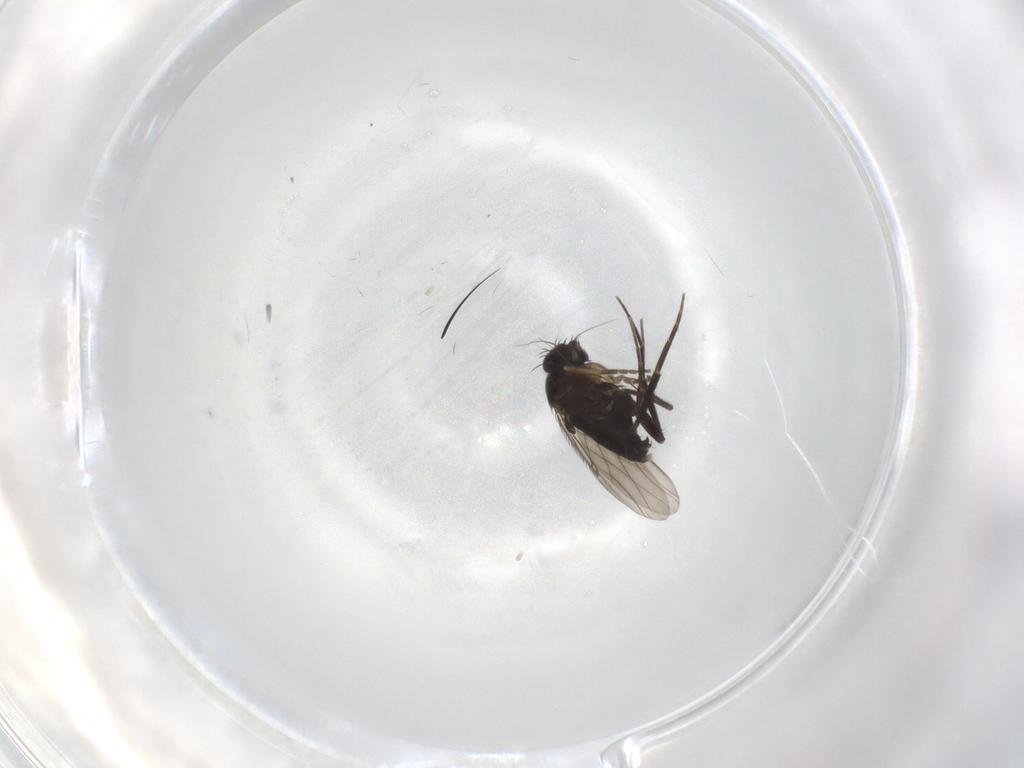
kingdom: Animalia
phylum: Arthropoda
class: Insecta
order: Diptera
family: Phoridae
